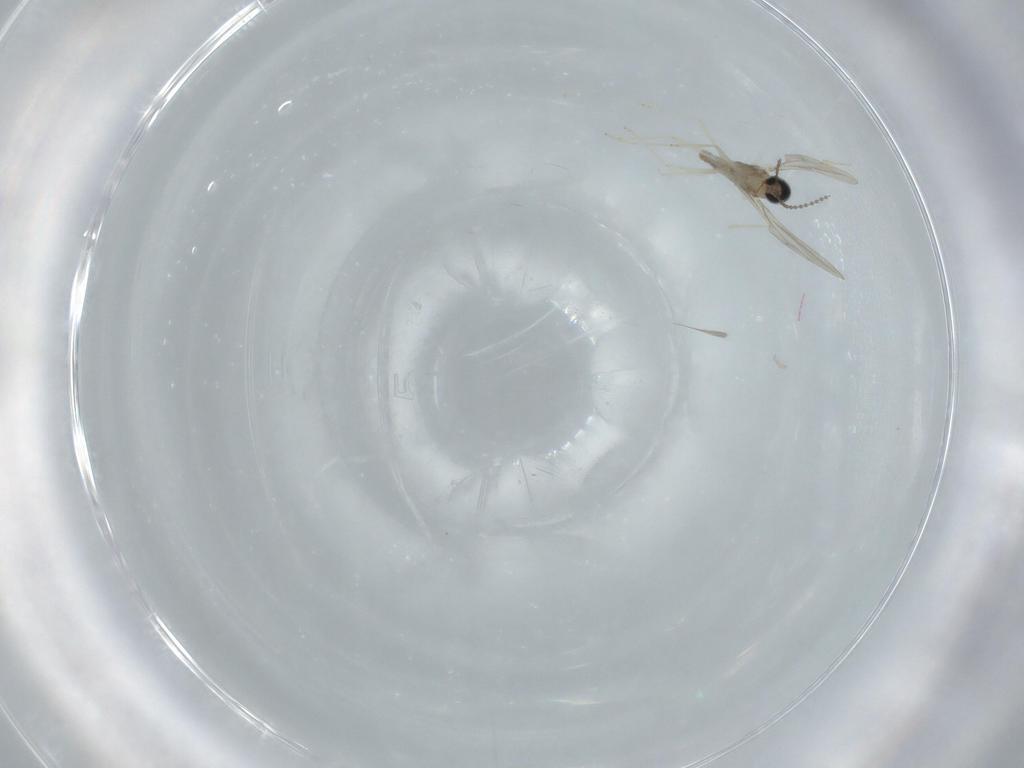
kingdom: Animalia
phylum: Arthropoda
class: Insecta
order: Diptera
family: Cecidomyiidae
